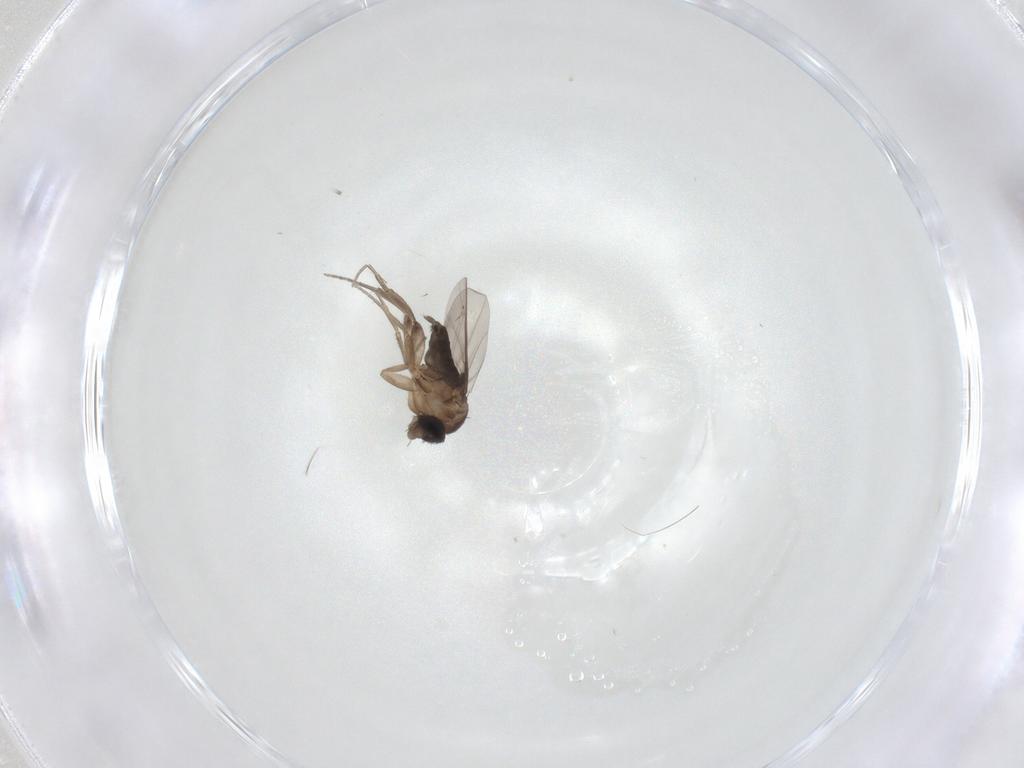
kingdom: Animalia
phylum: Arthropoda
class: Insecta
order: Diptera
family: Phoridae
